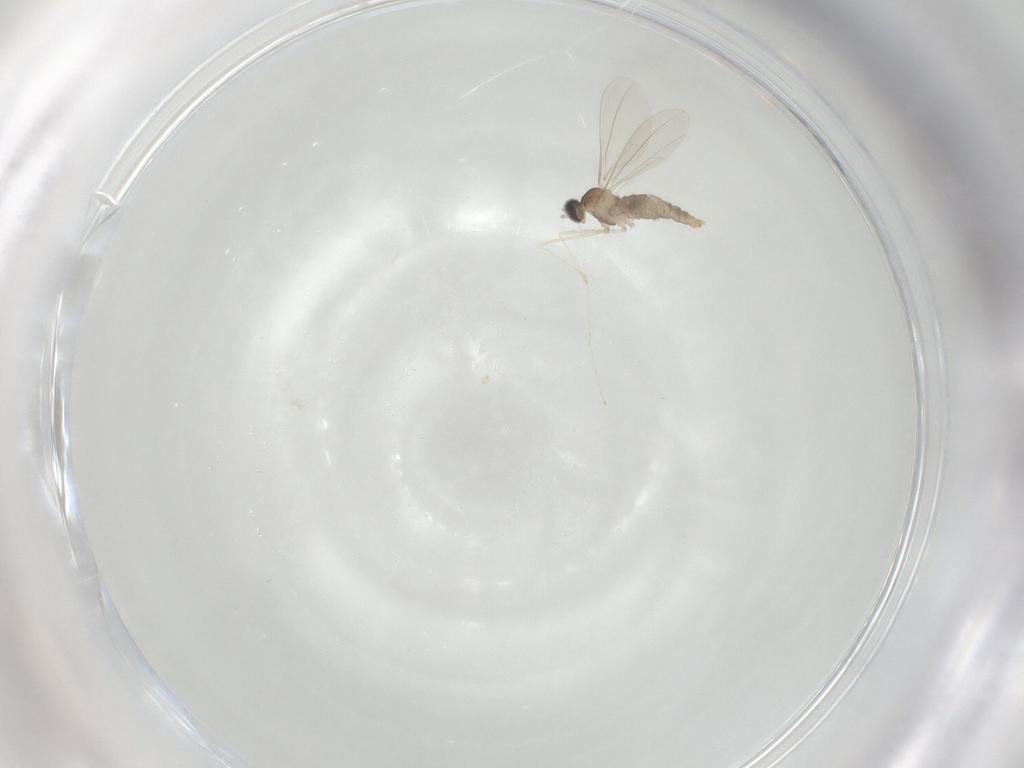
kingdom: Animalia
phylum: Arthropoda
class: Insecta
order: Diptera
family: Cecidomyiidae
